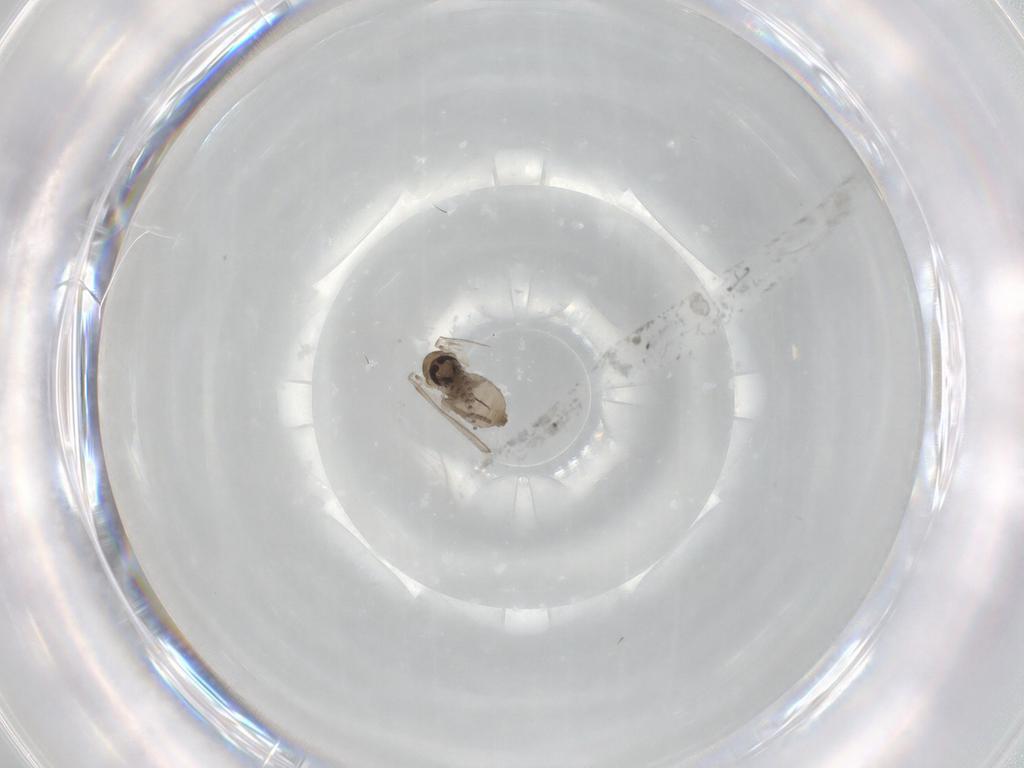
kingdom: Animalia
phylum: Arthropoda
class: Insecta
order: Diptera
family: Psychodidae
